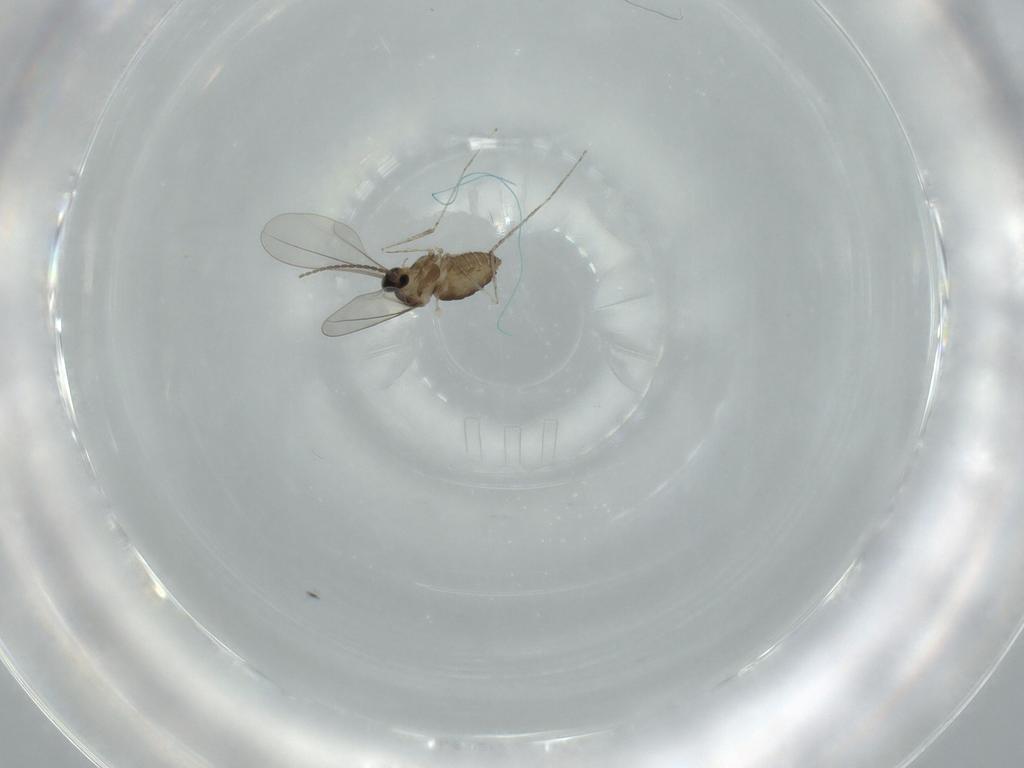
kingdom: Animalia
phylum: Arthropoda
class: Insecta
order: Diptera
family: Cecidomyiidae
